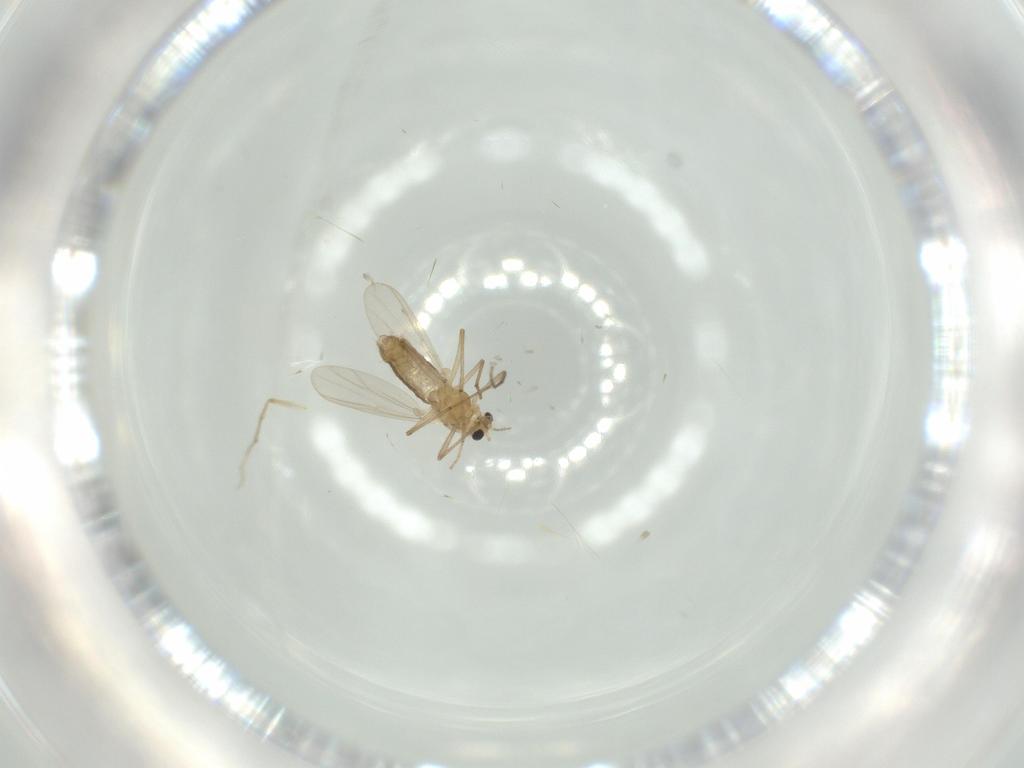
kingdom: Animalia
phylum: Arthropoda
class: Insecta
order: Diptera
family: Chironomidae
